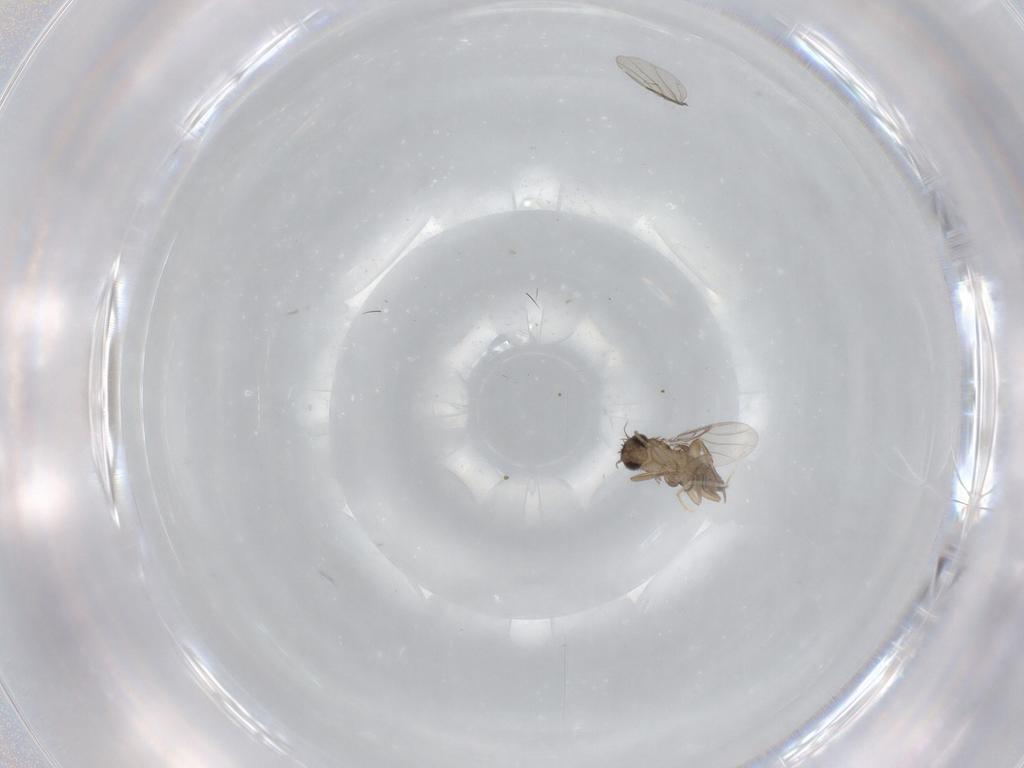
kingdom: Animalia
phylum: Arthropoda
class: Insecta
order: Diptera
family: Phoridae
